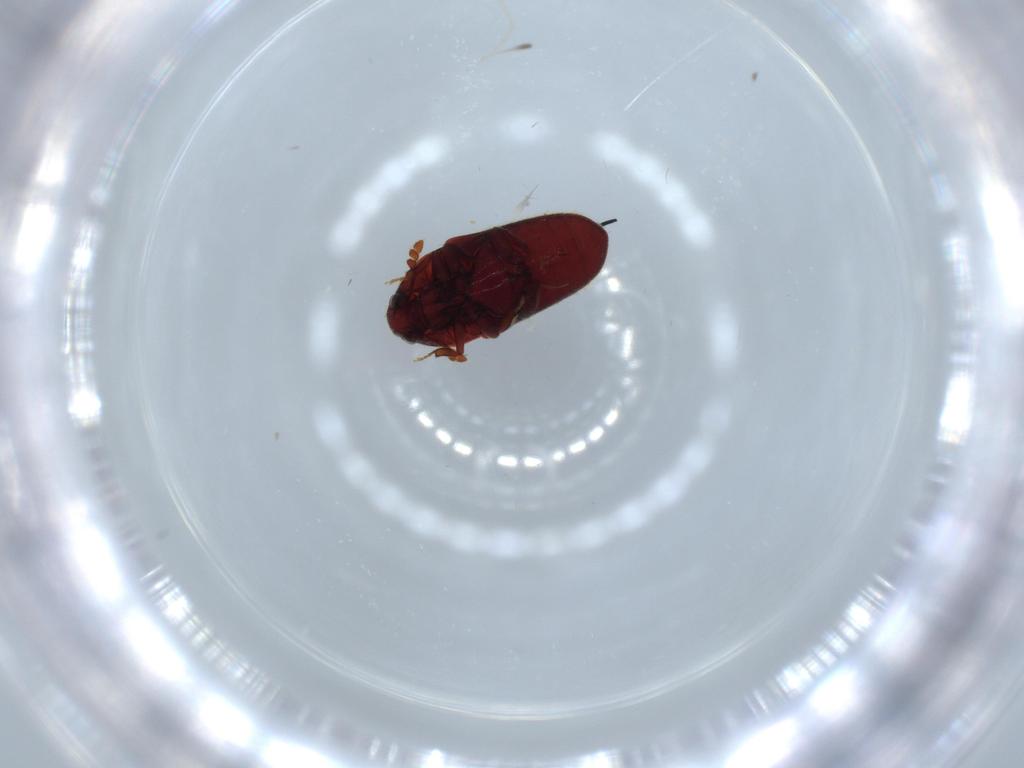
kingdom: Animalia
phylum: Arthropoda
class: Insecta
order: Coleoptera
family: Throscidae
